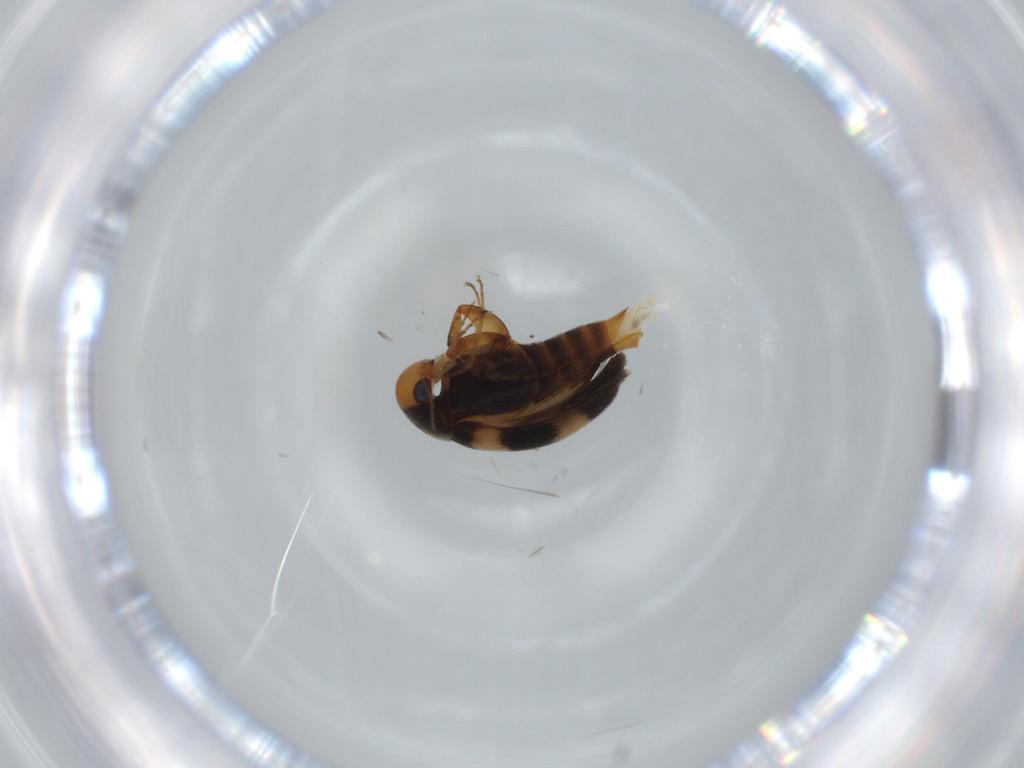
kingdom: Animalia
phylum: Arthropoda
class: Insecta
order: Coleoptera
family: Mordellidae
